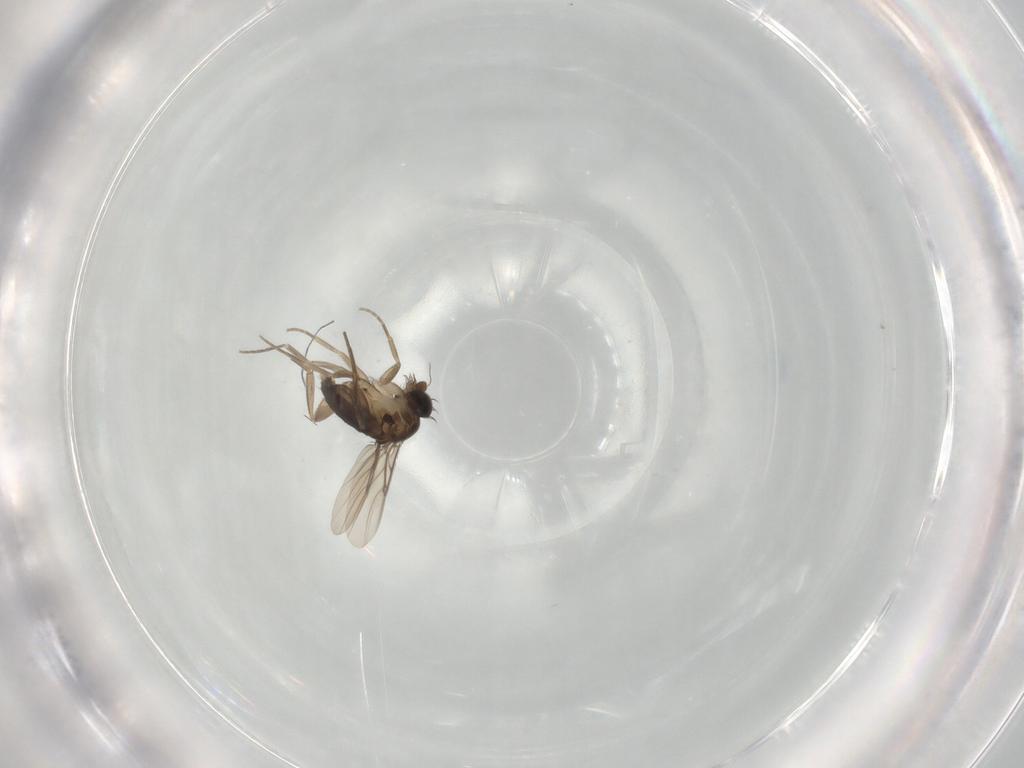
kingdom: Animalia
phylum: Arthropoda
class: Insecta
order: Diptera
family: Phoridae
